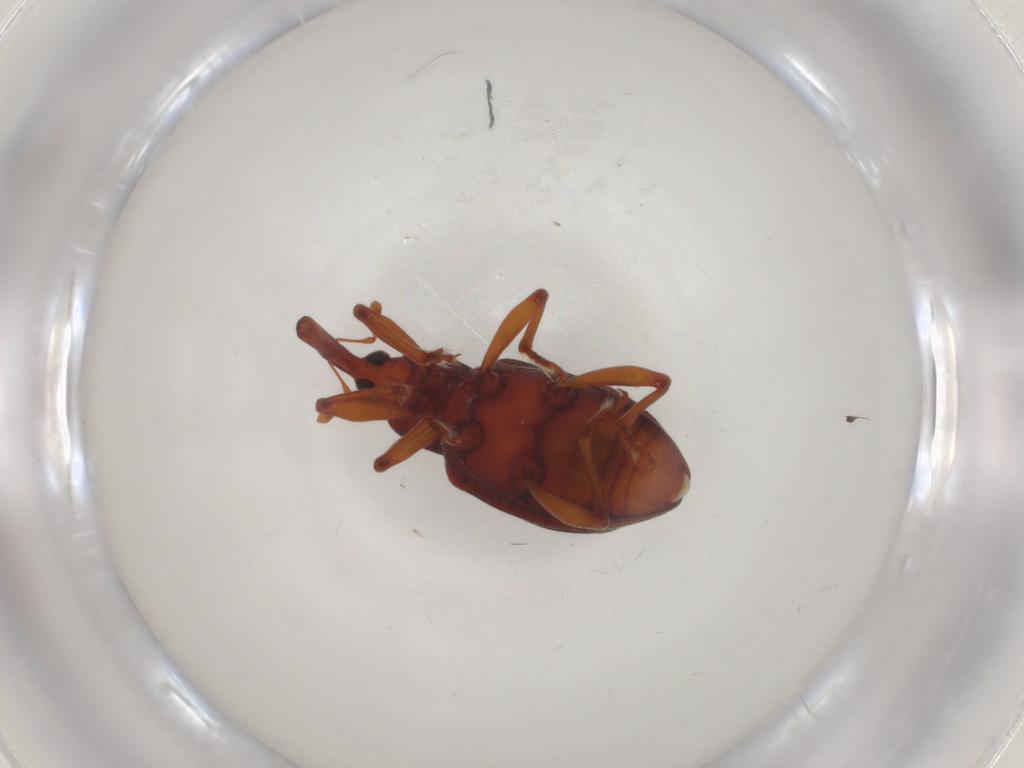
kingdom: Animalia
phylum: Arthropoda
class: Insecta
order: Coleoptera
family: Curculionidae
